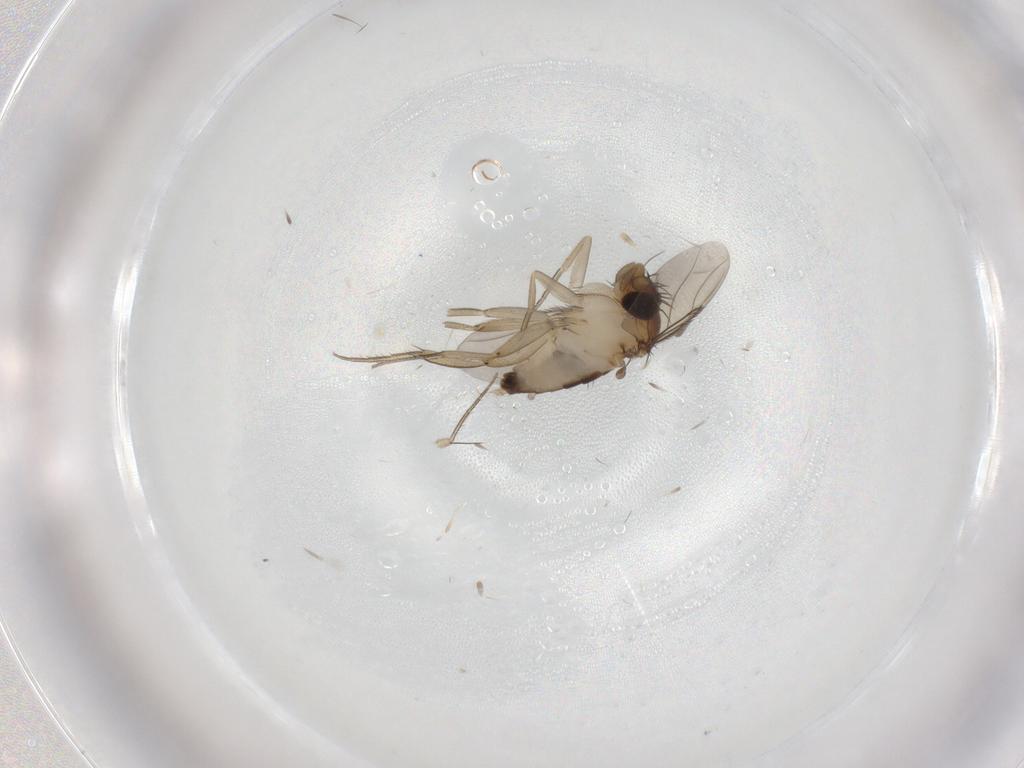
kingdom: Animalia
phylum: Arthropoda
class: Insecta
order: Diptera
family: Phoridae
